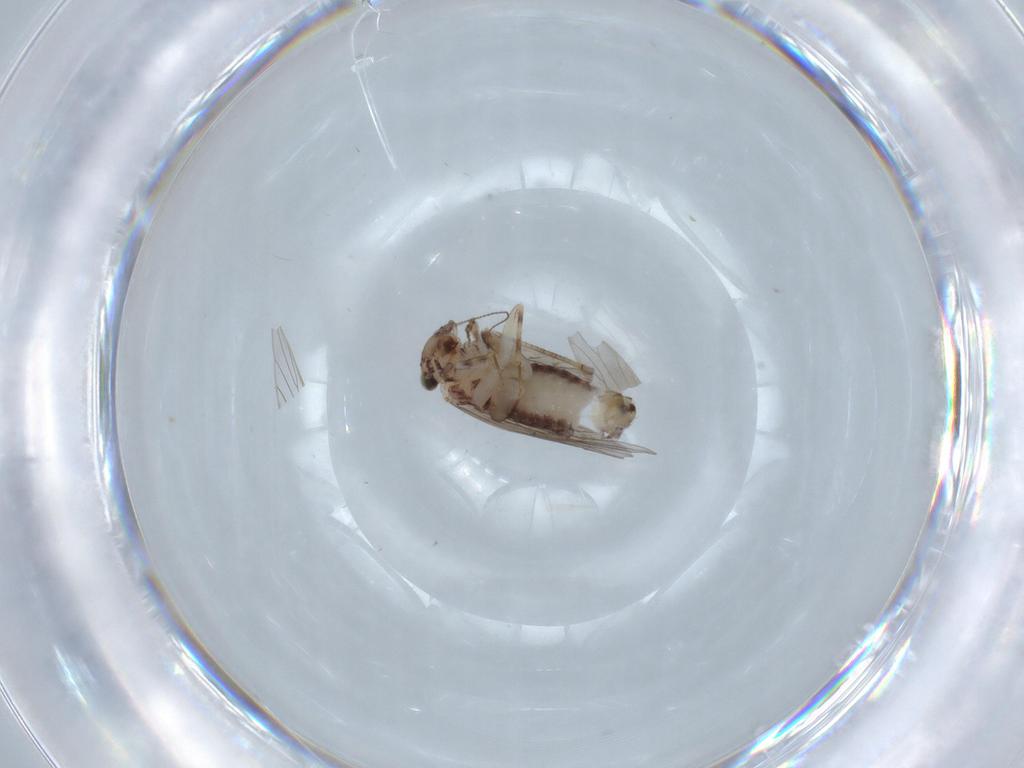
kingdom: Animalia
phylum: Arthropoda
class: Insecta
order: Psocodea
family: Lepidopsocidae
